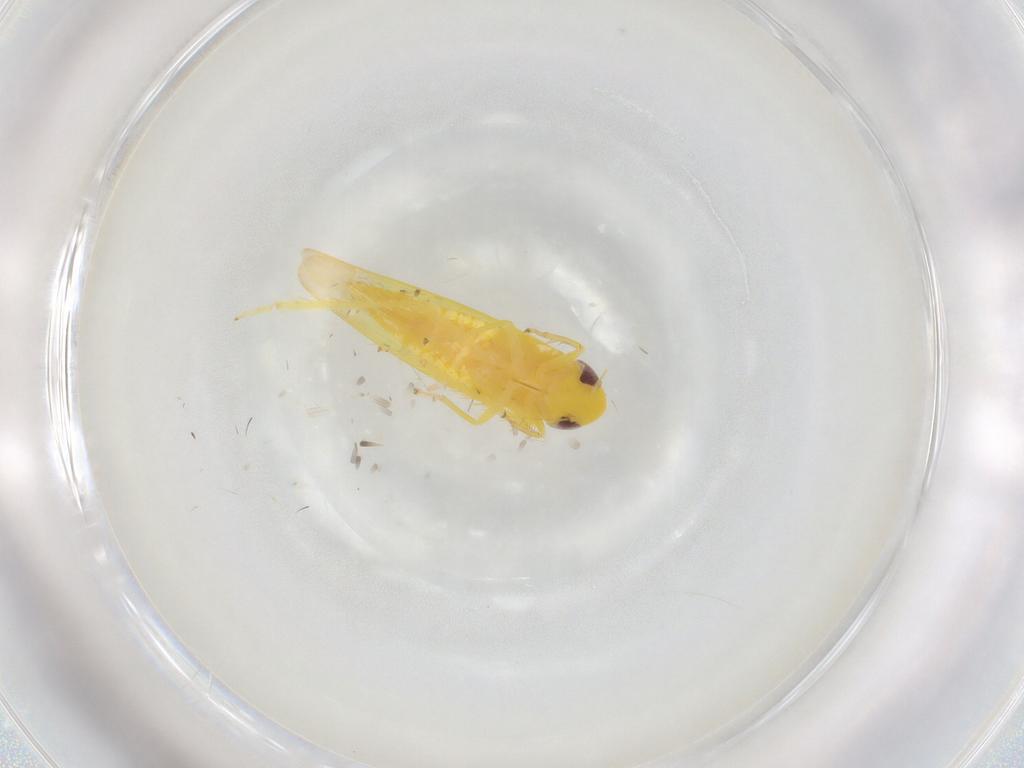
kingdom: Animalia
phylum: Arthropoda
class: Insecta
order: Hemiptera
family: Cicadellidae
